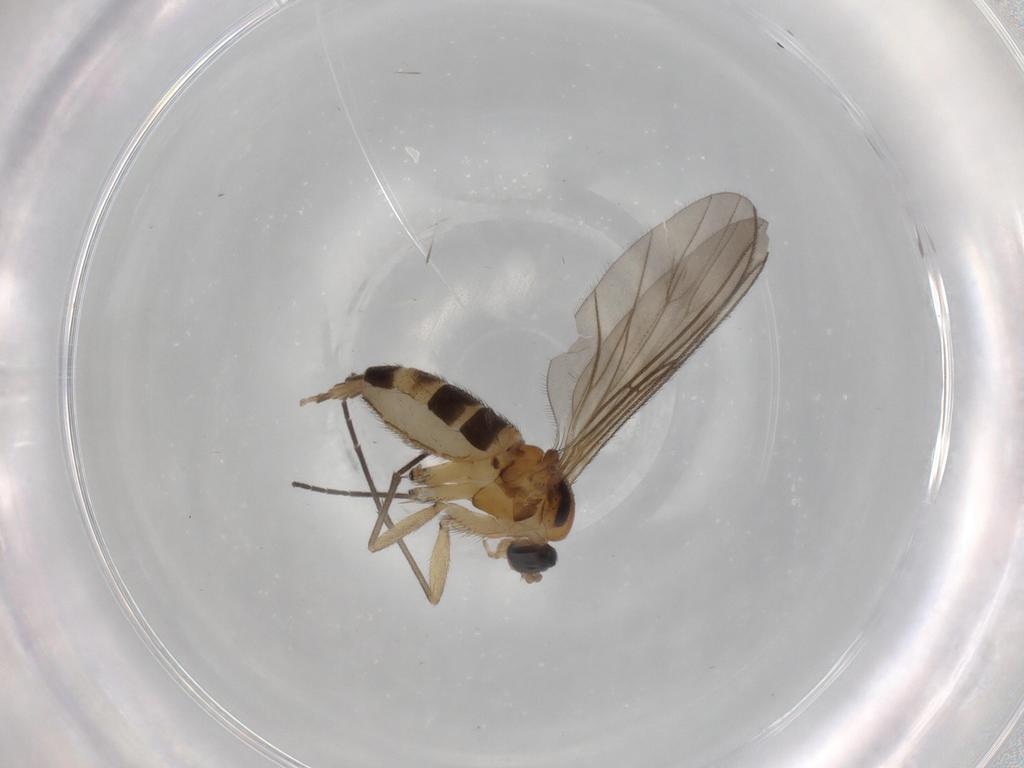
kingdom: Animalia
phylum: Arthropoda
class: Insecta
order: Diptera
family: Sciaridae
